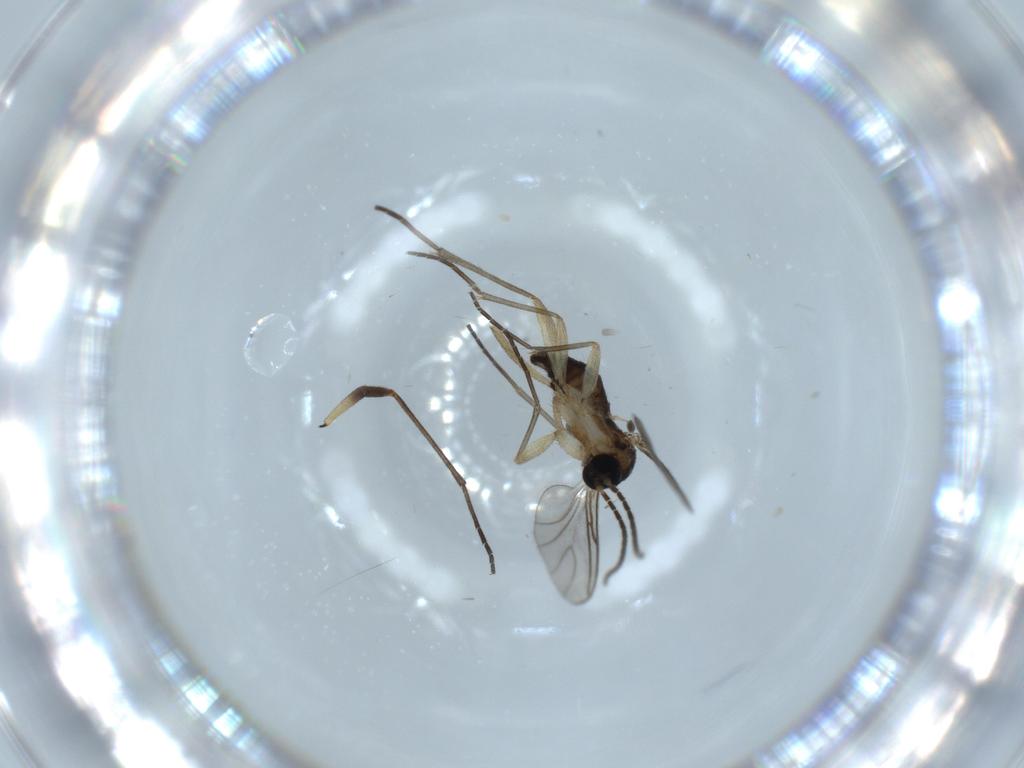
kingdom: Animalia
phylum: Arthropoda
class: Insecta
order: Diptera
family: Sciaridae
